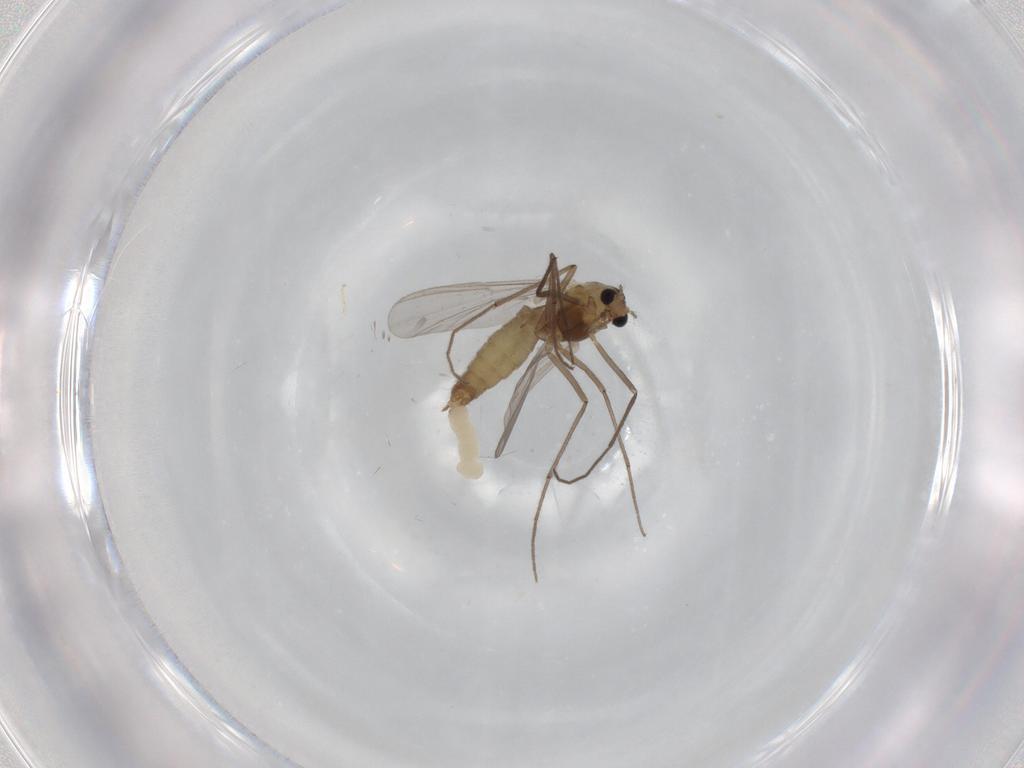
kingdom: Animalia
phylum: Arthropoda
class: Insecta
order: Diptera
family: Chironomidae
